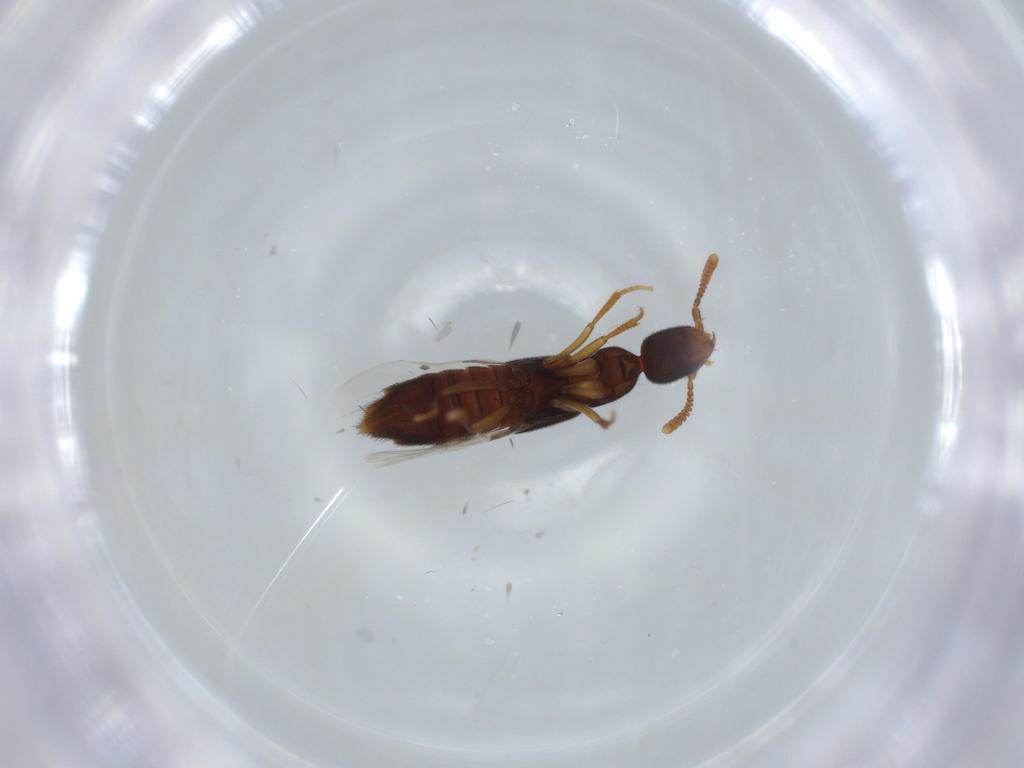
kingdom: Animalia
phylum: Arthropoda
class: Insecta
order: Coleoptera
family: Staphylinidae
